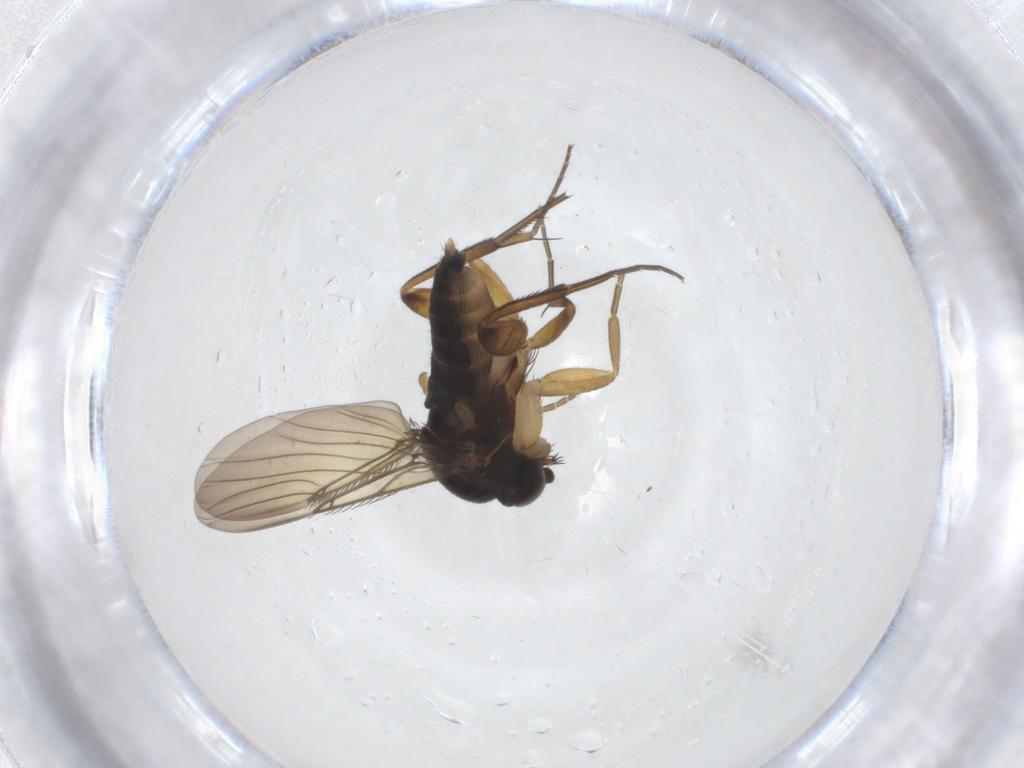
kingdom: Animalia
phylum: Arthropoda
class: Insecta
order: Diptera
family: Phoridae
